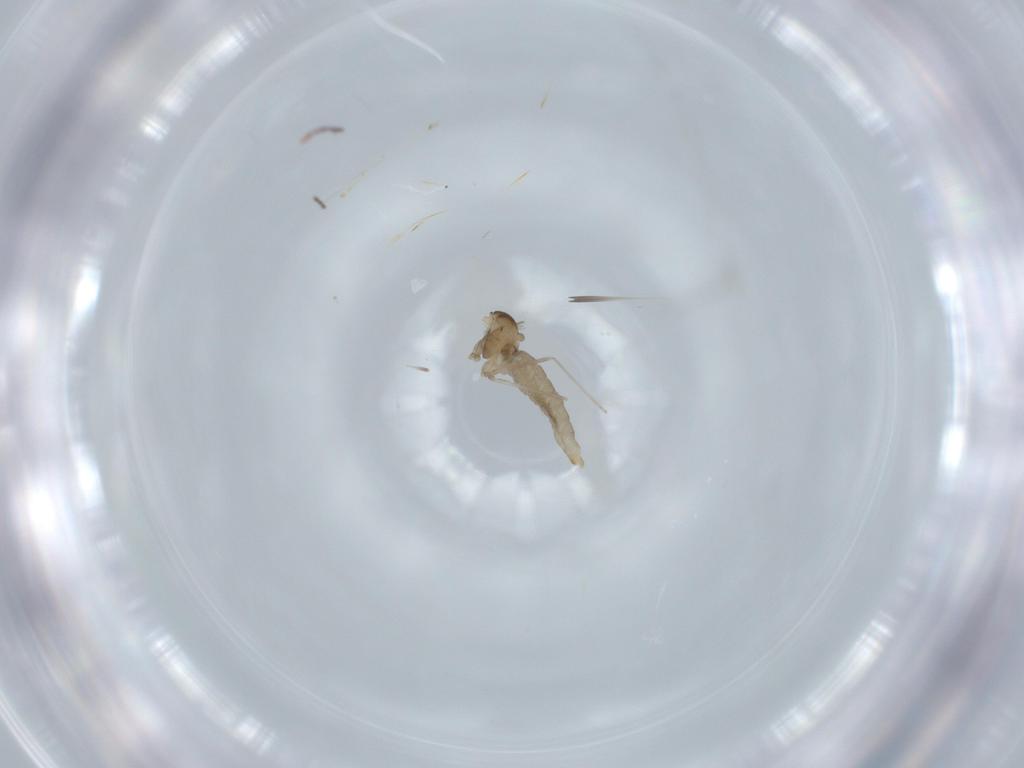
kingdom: Animalia
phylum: Arthropoda
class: Insecta
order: Diptera
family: Cecidomyiidae
